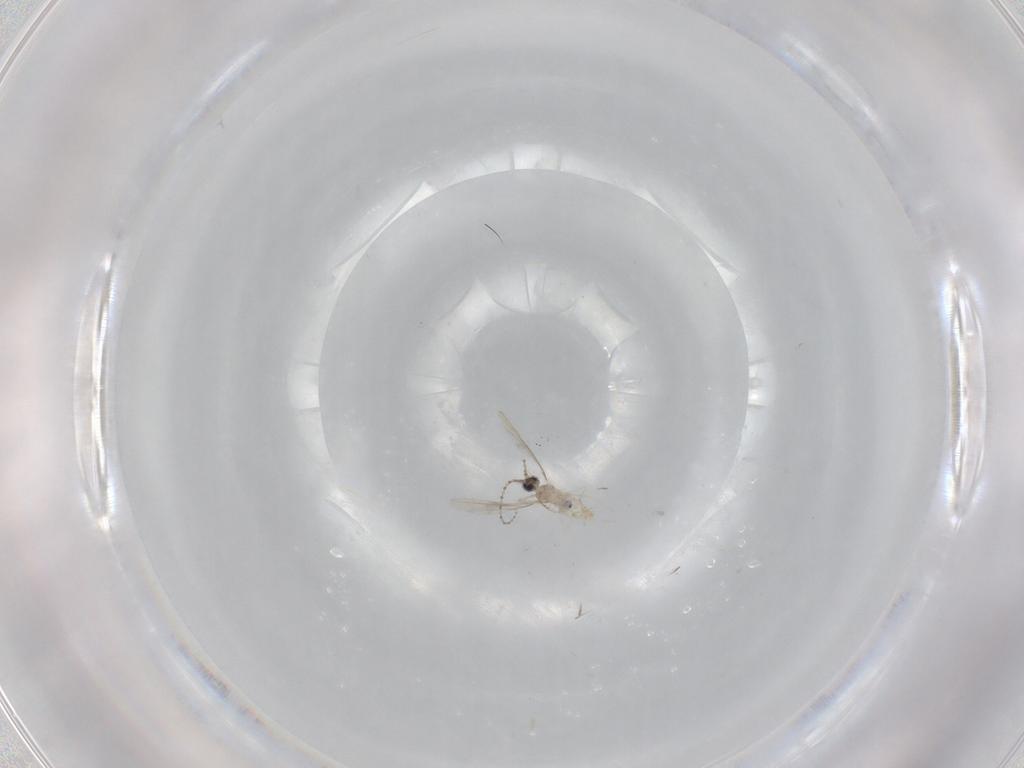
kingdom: Animalia
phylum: Arthropoda
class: Insecta
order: Diptera
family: Cecidomyiidae
